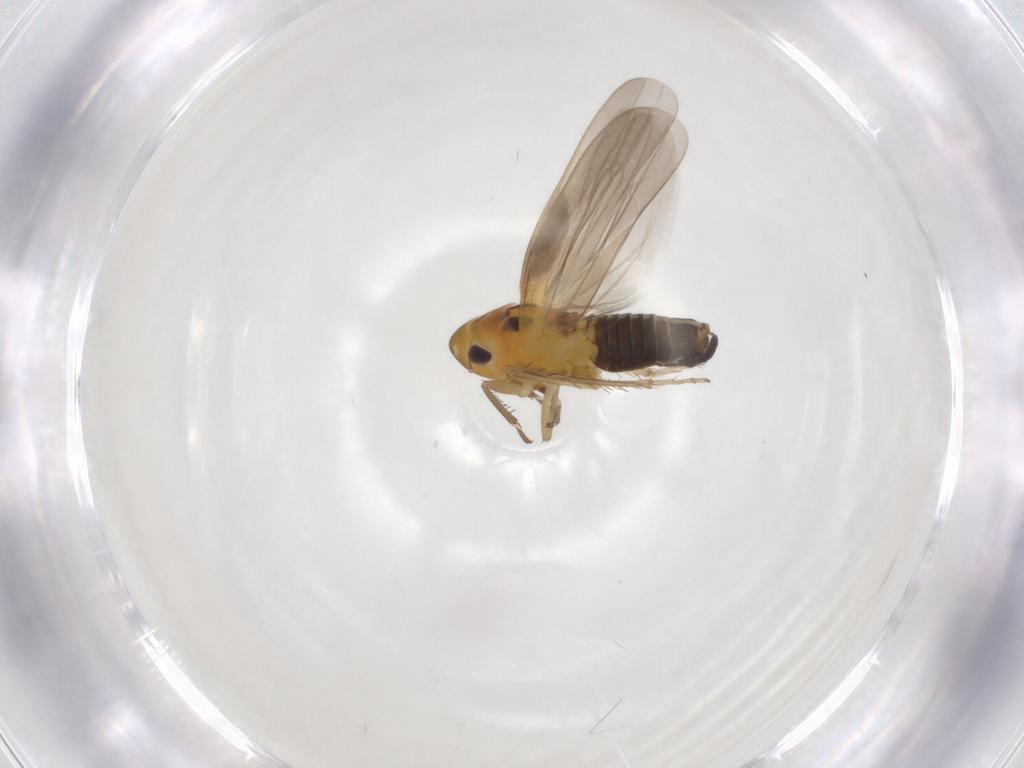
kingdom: Animalia
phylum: Arthropoda
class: Insecta
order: Hemiptera
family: Cicadellidae
